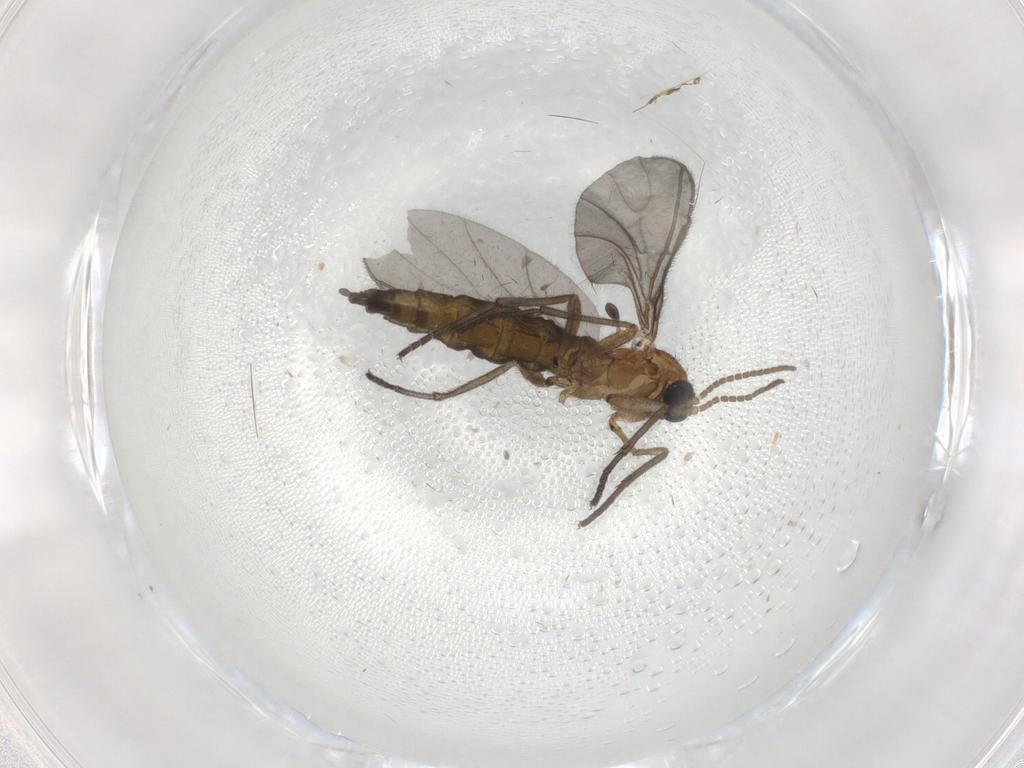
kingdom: Animalia
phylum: Arthropoda
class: Insecta
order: Diptera
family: Sciaridae
